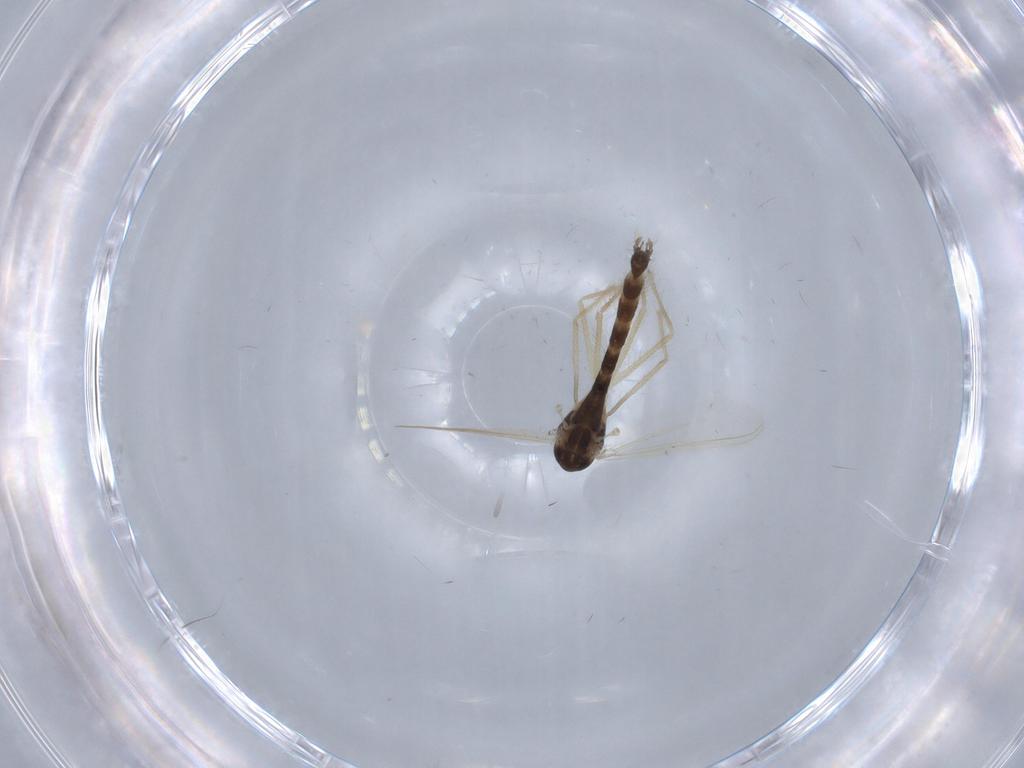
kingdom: Animalia
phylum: Arthropoda
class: Insecta
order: Diptera
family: Chironomidae
